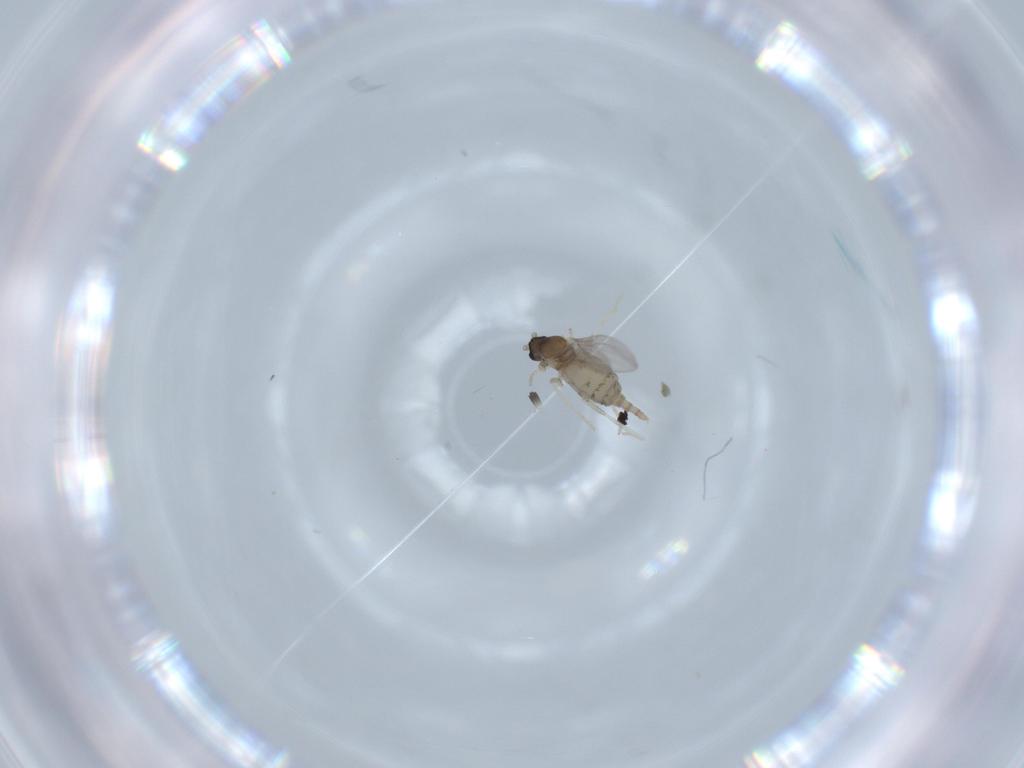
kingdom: Animalia
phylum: Arthropoda
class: Insecta
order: Diptera
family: Cecidomyiidae
